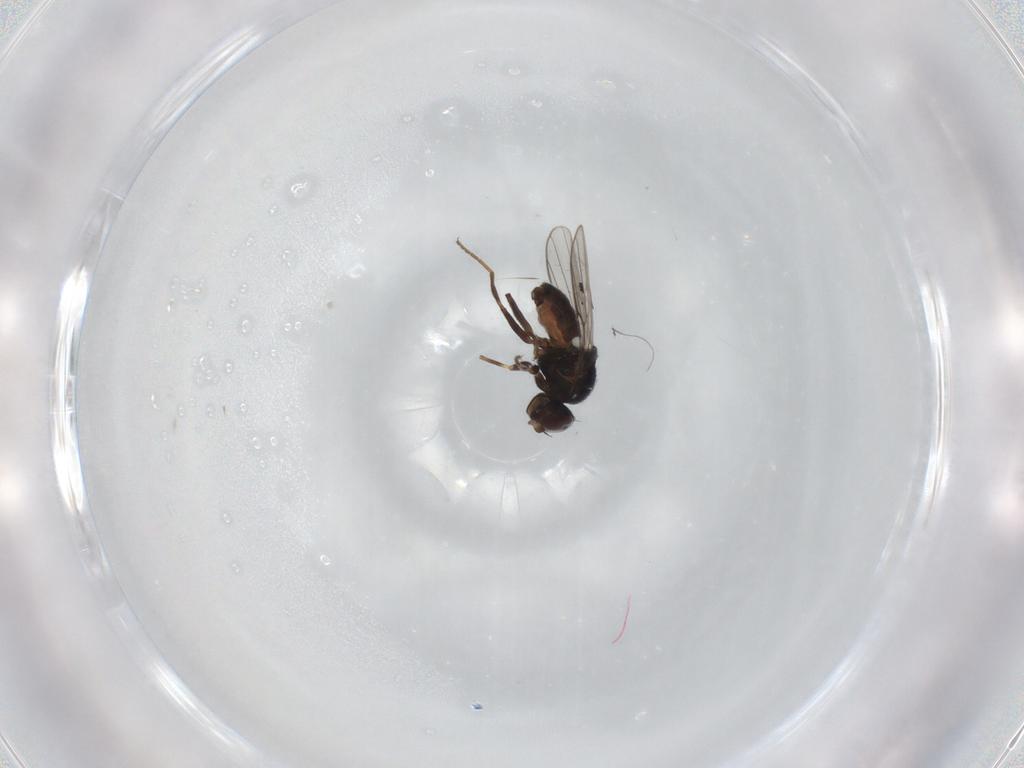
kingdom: Animalia
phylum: Arthropoda
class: Insecta
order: Diptera
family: Chloropidae
